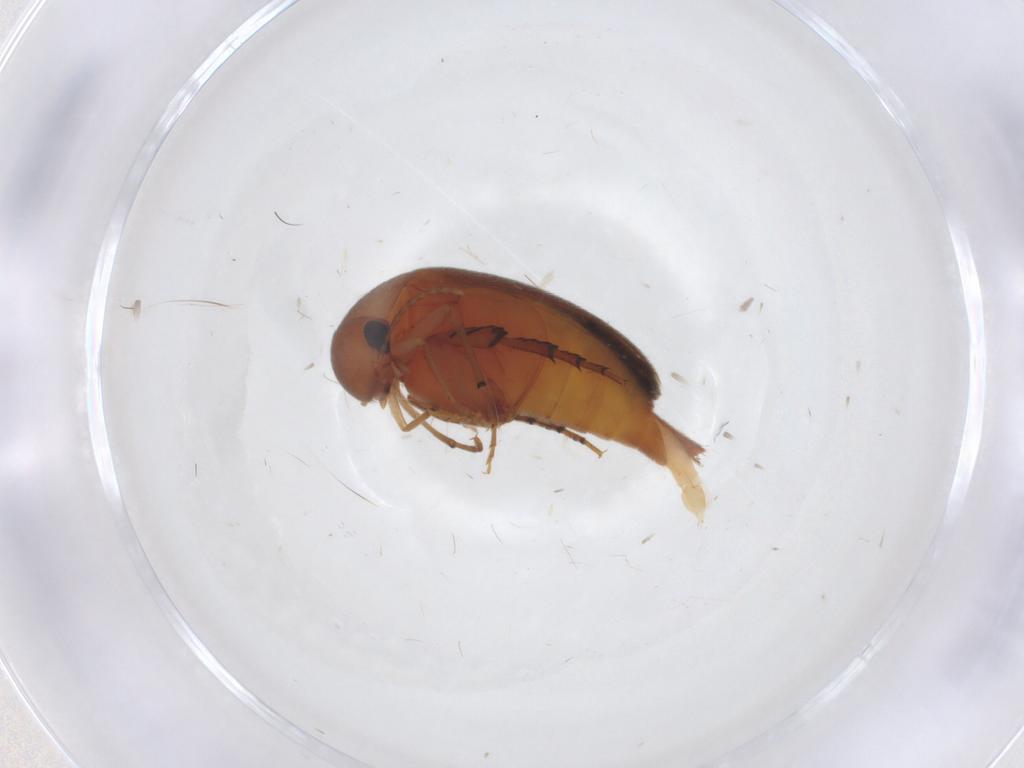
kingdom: Animalia
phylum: Arthropoda
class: Insecta
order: Coleoptera
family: Mordellidae
